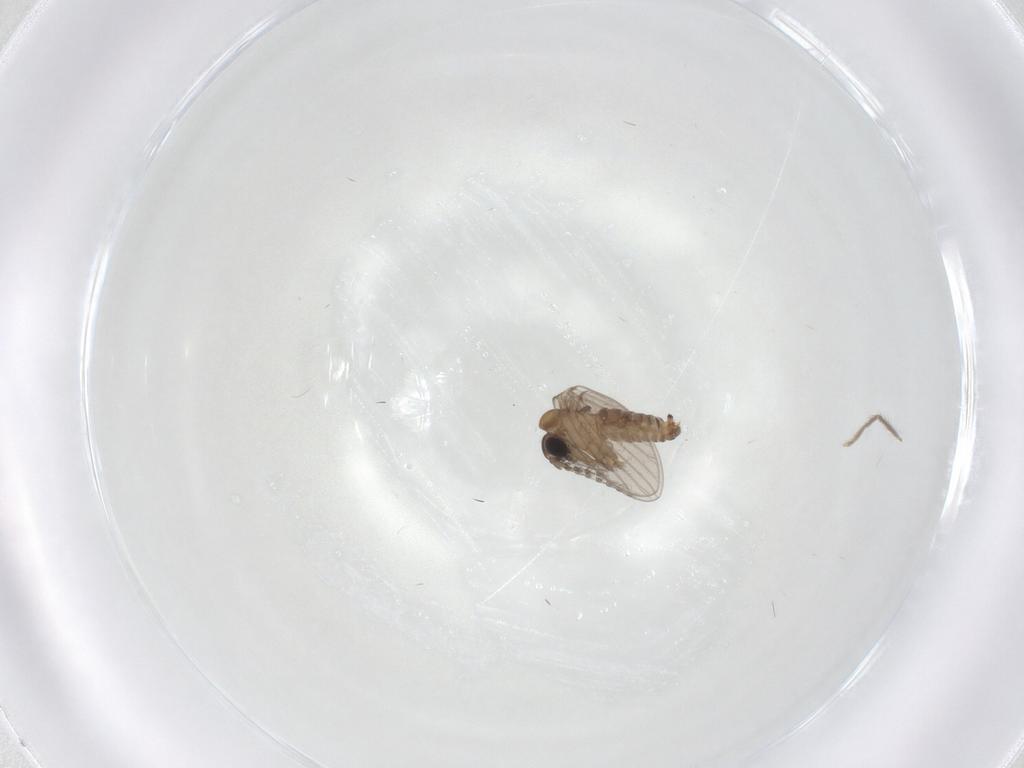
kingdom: Animalia
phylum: Arthropoda
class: Insecta
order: Diptera
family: Chironomidae
